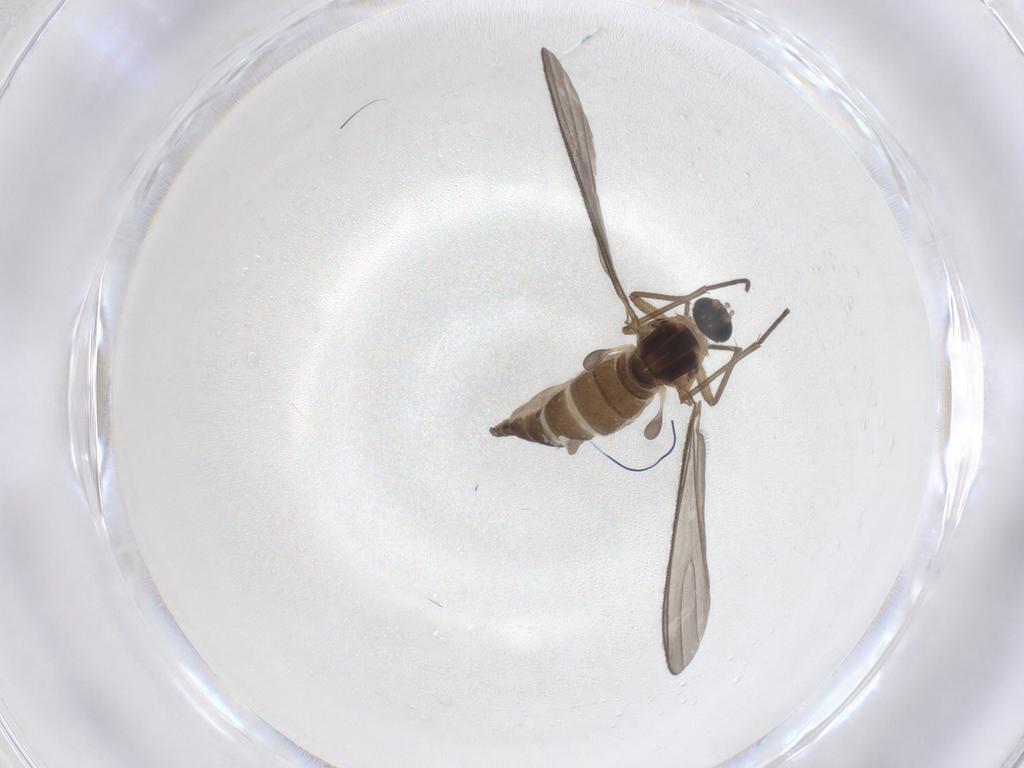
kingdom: Animalia
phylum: Arthropoda
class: Insecta
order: Diptera
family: Sciaridae
